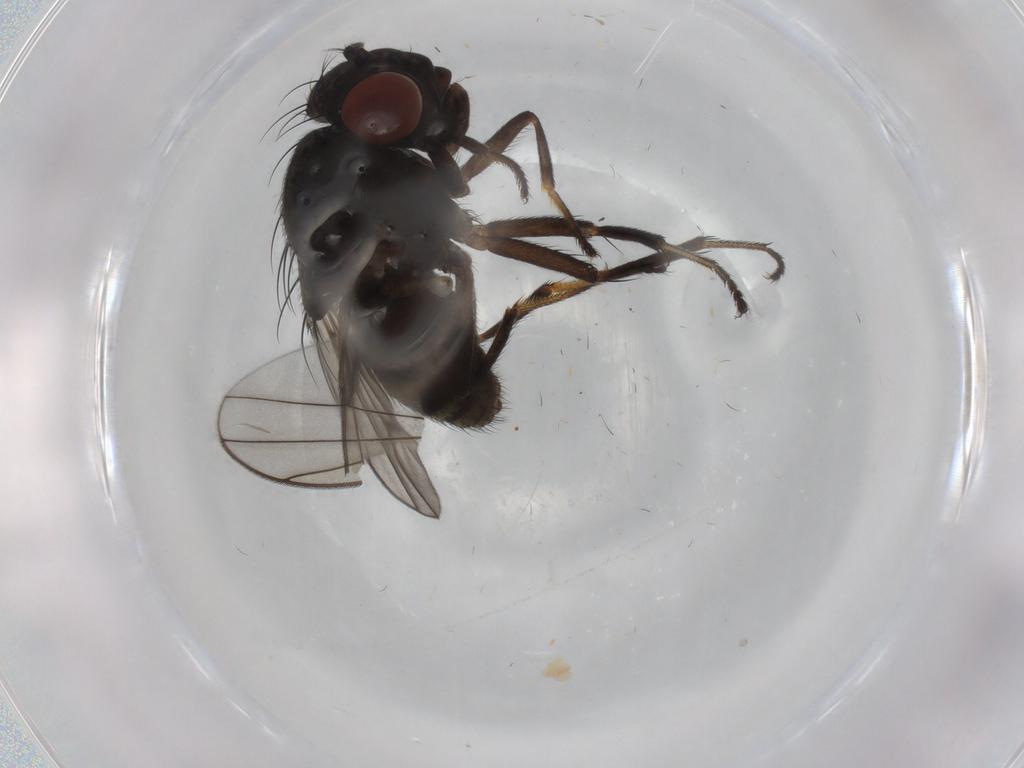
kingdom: Animalia
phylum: Arthropoda
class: Insecta
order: Diptera
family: Ephydridae
